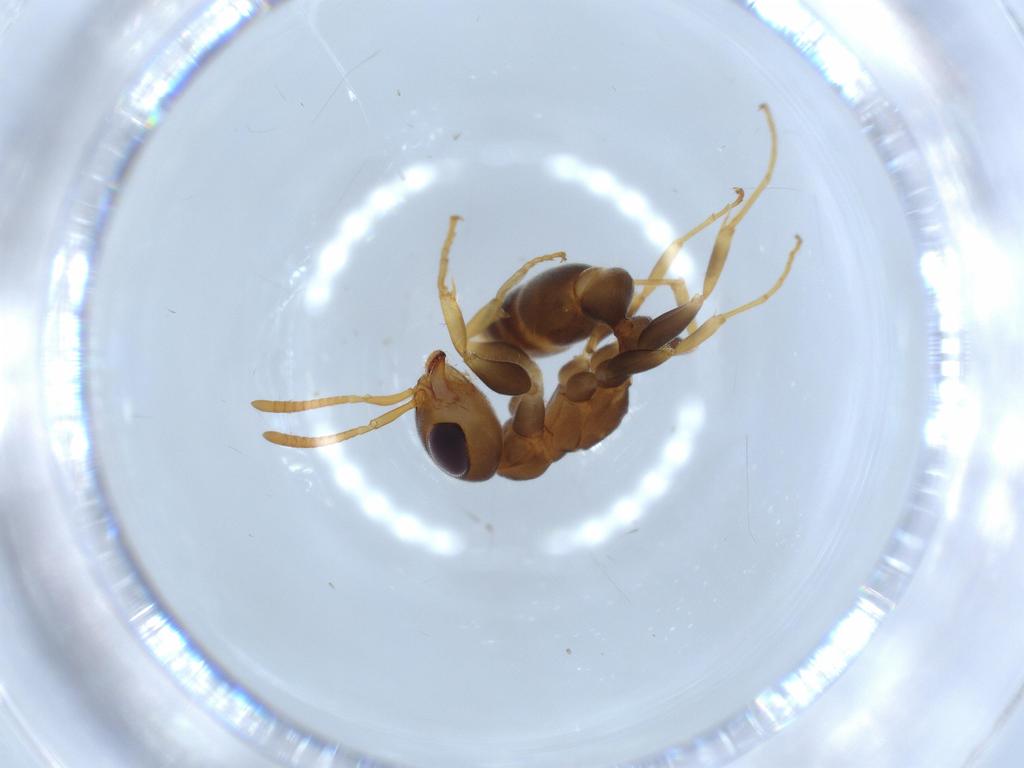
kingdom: Animalia
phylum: Arthropoda
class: Insecta
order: Hymenoptera
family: Formicidae
